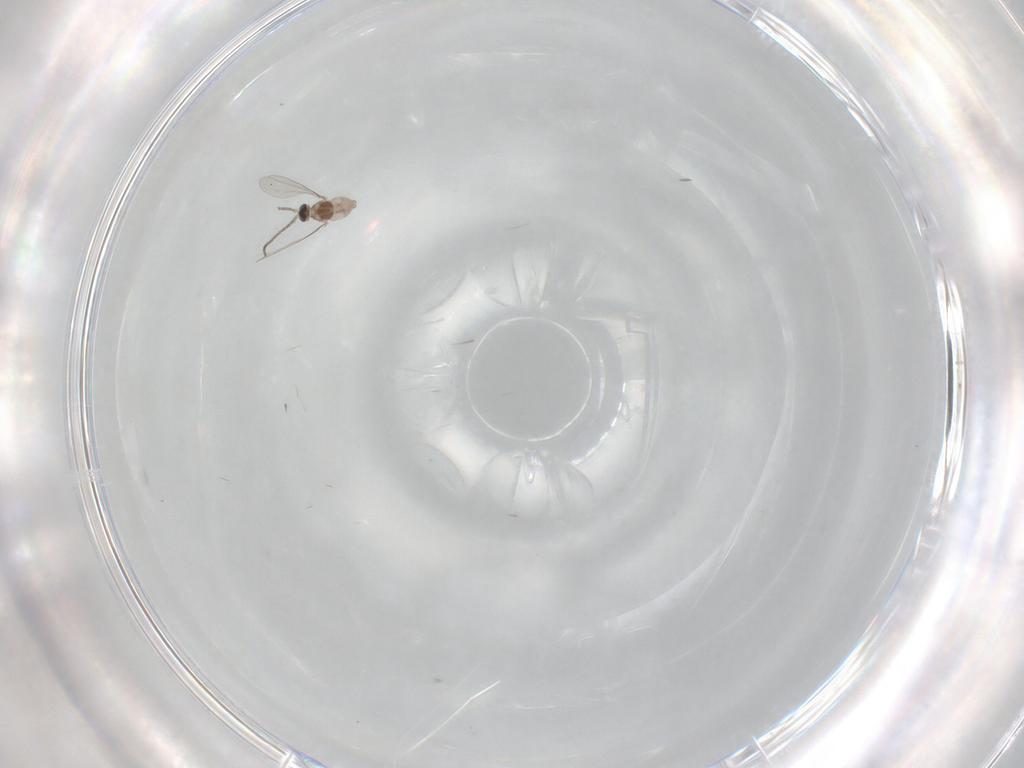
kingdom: Animalia
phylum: Arthropoda
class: Insecta
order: Diptera
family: Cecidomyiidae
